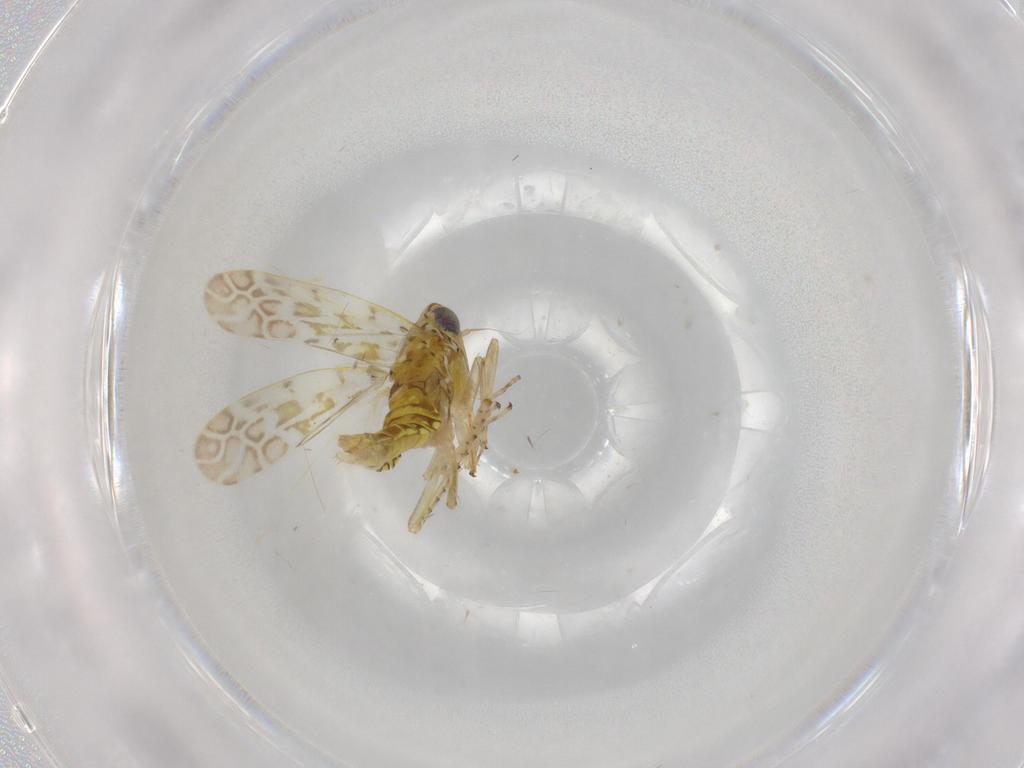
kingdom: Animalia
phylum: Arthropoda
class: Insecta
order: Hemiptera
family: Cicadellidae
